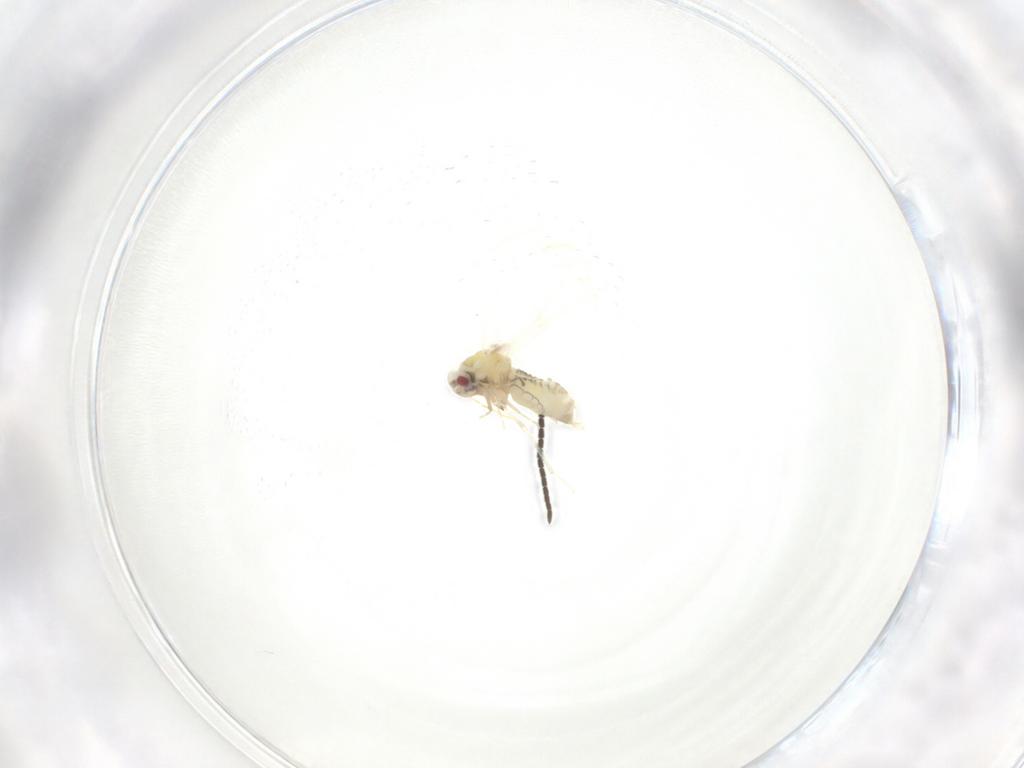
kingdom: Animalia
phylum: Arthropoda
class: Insecta
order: Hemiptera
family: Aleyrodidae
